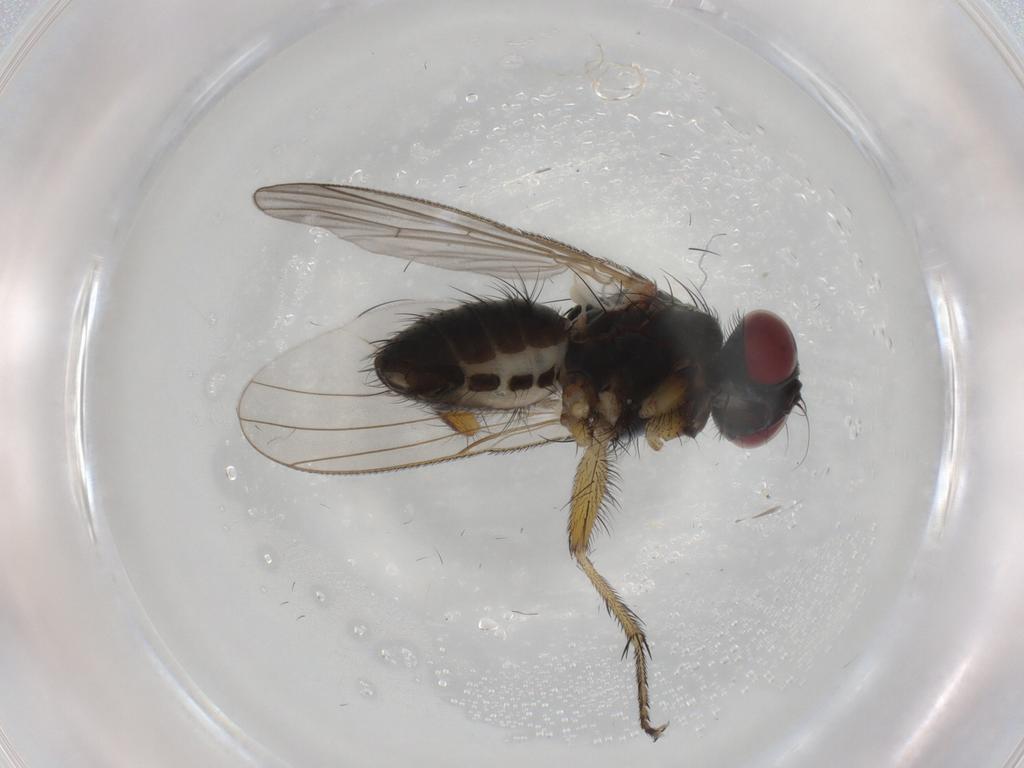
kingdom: Animalia
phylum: Arthropoda
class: Insecta
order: Diptera
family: Muscidae
